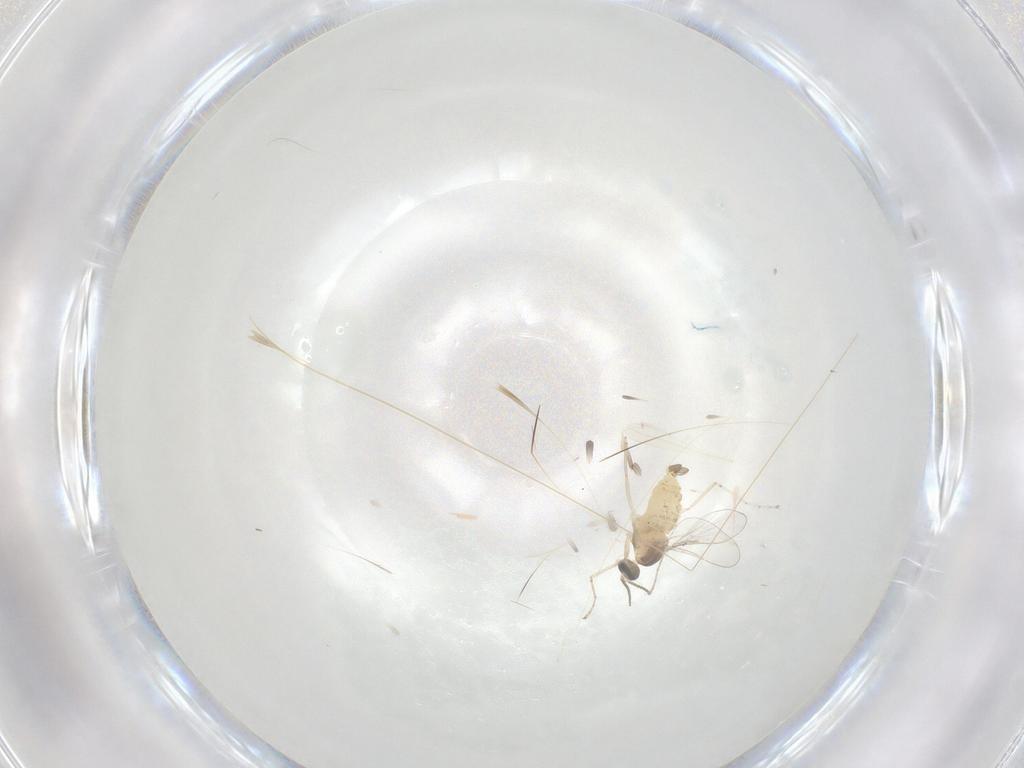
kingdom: Animalia
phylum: Arthropoda
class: Insecta
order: Diptera
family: Cecidomyiidae
